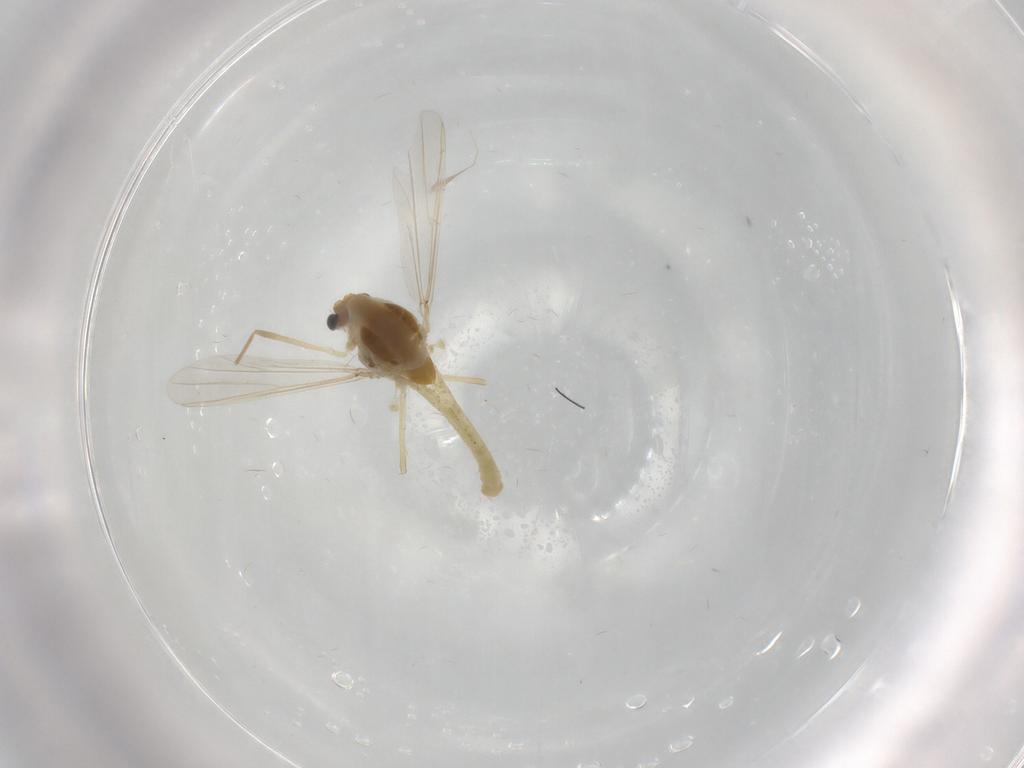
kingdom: Animalia
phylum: Arthropoda
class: Insecta
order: Diptera
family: Chironomidae
